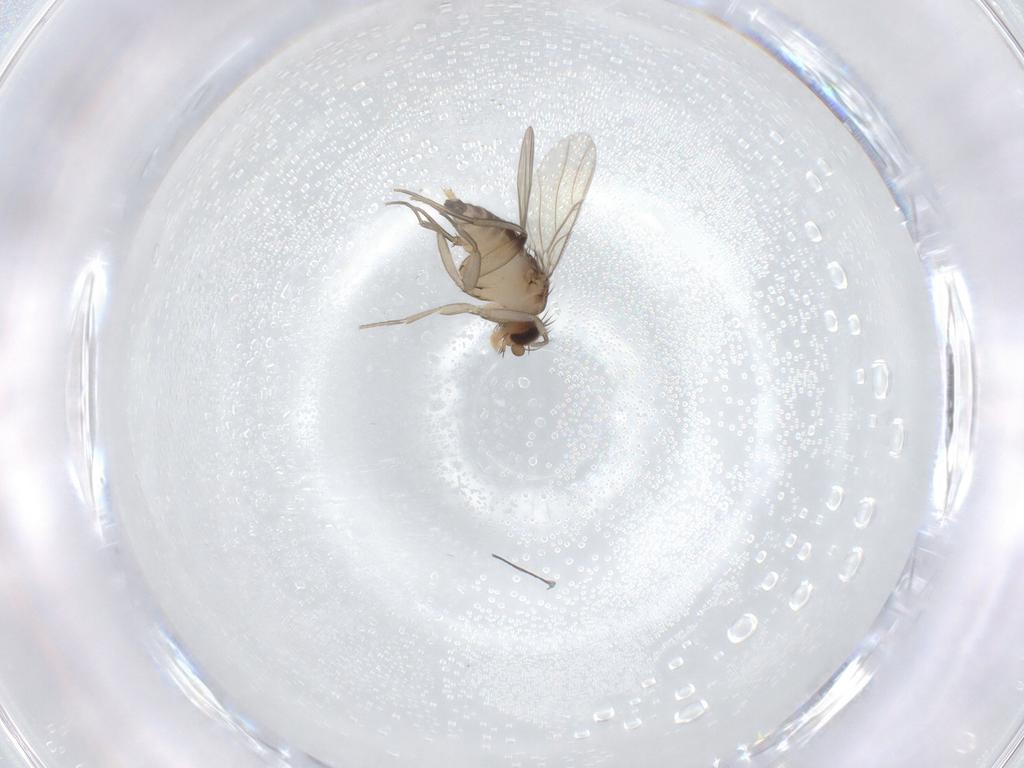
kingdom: Animalia
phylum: Arthropoda
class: Insecta
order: Diptera
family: Phoridae
